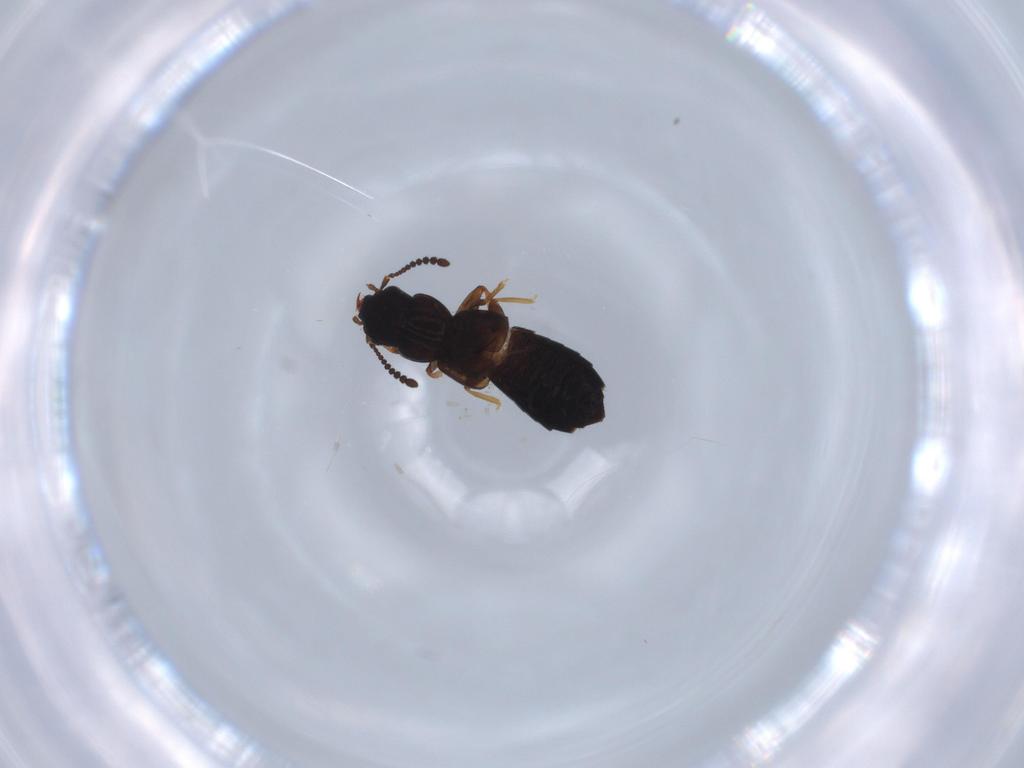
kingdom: Animalia
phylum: Arthropoda
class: Insecta
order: Coleoptera
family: Staphylinidae
